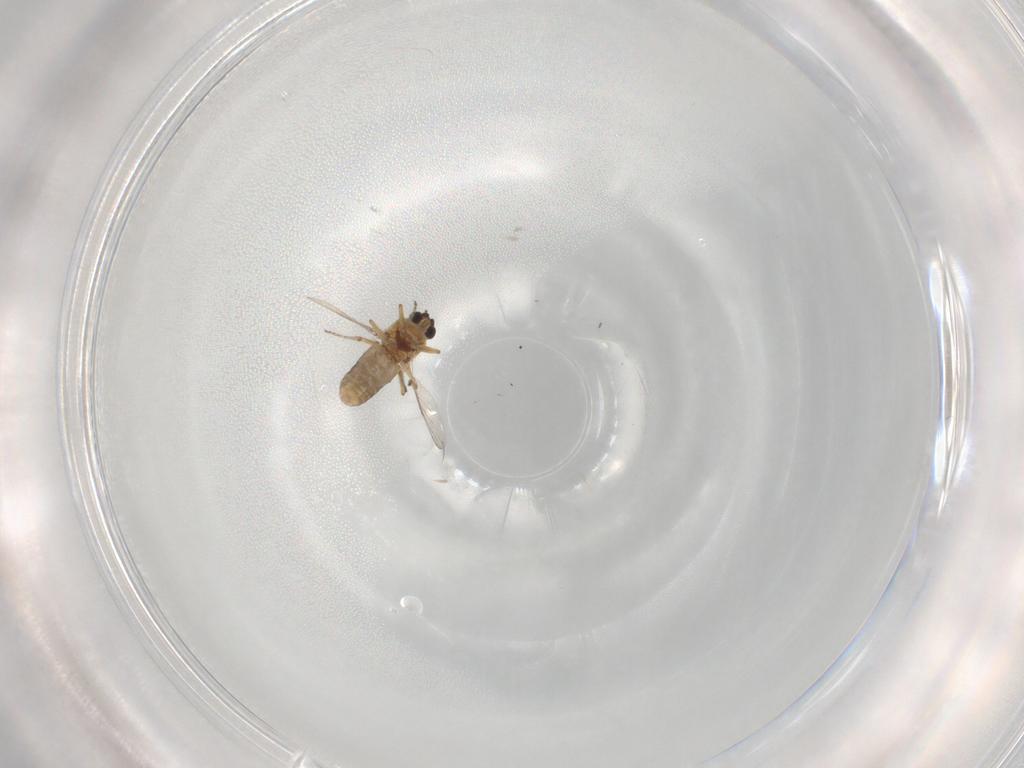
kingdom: Animalia
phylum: Arthropoda
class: Insecta
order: Diptera
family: Ceratopogonidae
